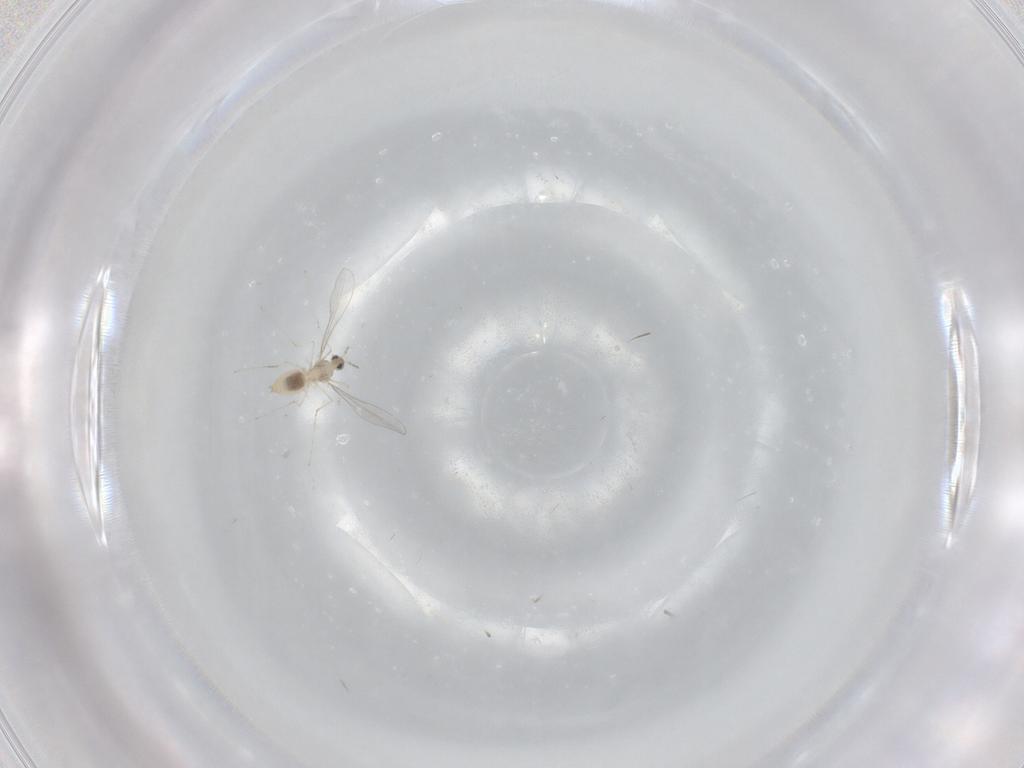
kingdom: Animalia
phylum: Arthropoda
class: Insecta
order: Diptera
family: Cecidomyiidae
